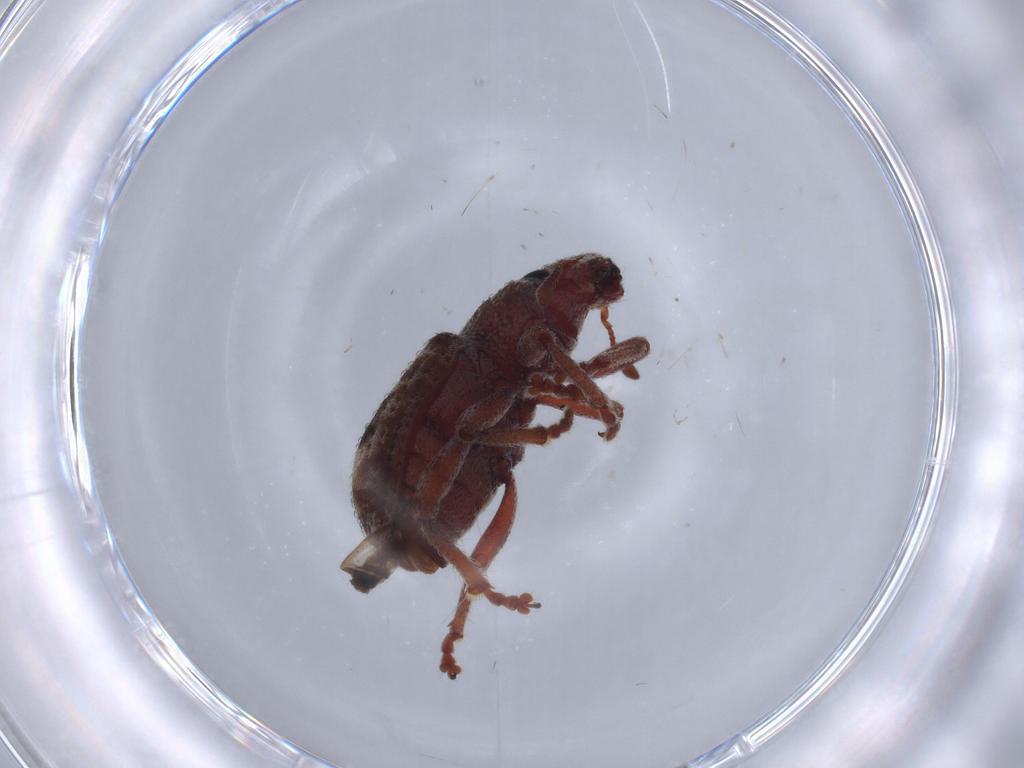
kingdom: Animalia
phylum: Arthropoda
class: Insecta
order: Coleoptera
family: Curculionidae
